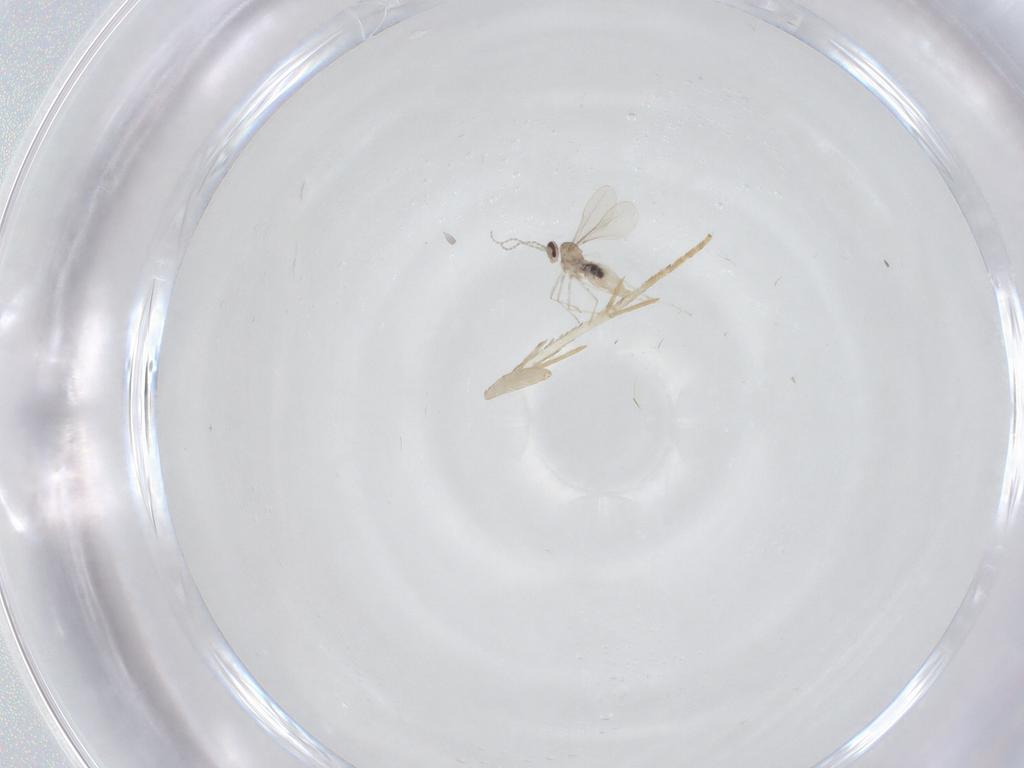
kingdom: Animalia
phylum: Arthropoda
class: Insecta
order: Diptera
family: Cecidomyiidae
